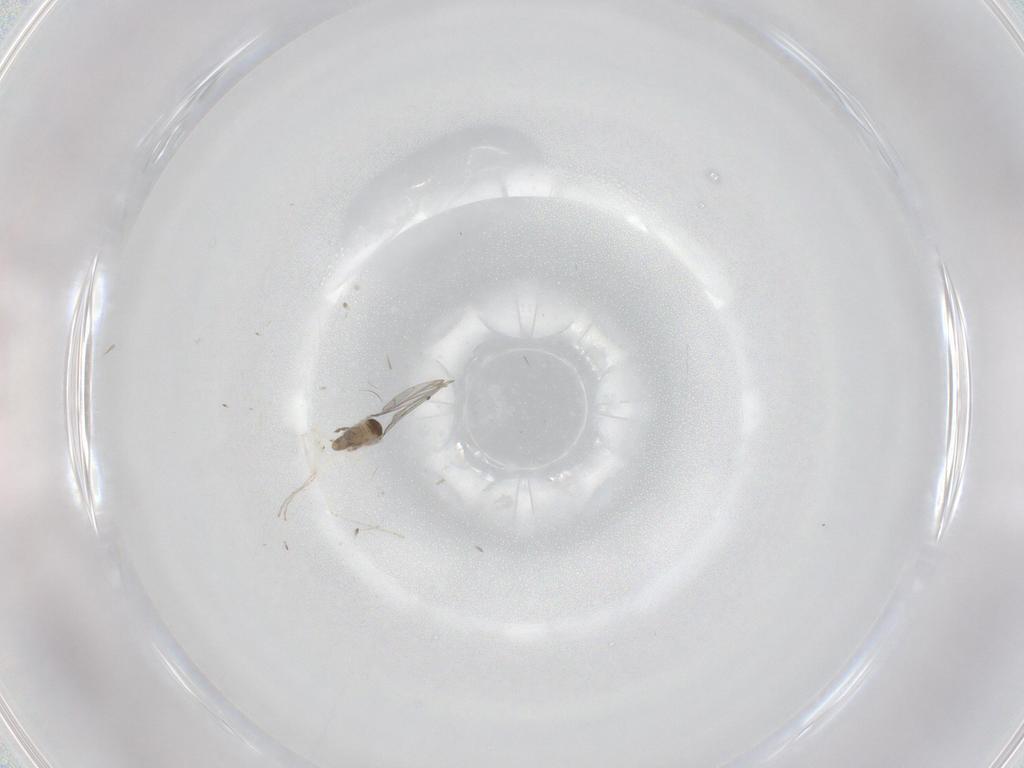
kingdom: Animalia
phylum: Arthropoda
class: Insecta
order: Diptera
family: Cecidomyiidae
